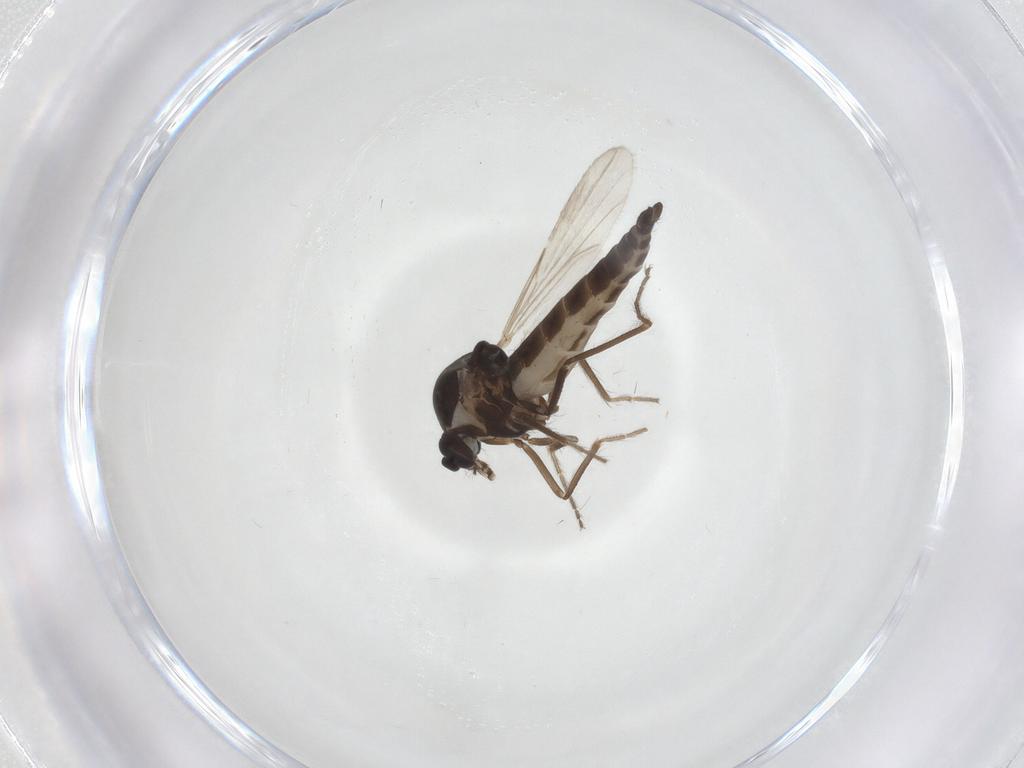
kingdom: Animalia
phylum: Arthropoda
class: Insecta
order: Diptera
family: Ceratopogonidae
